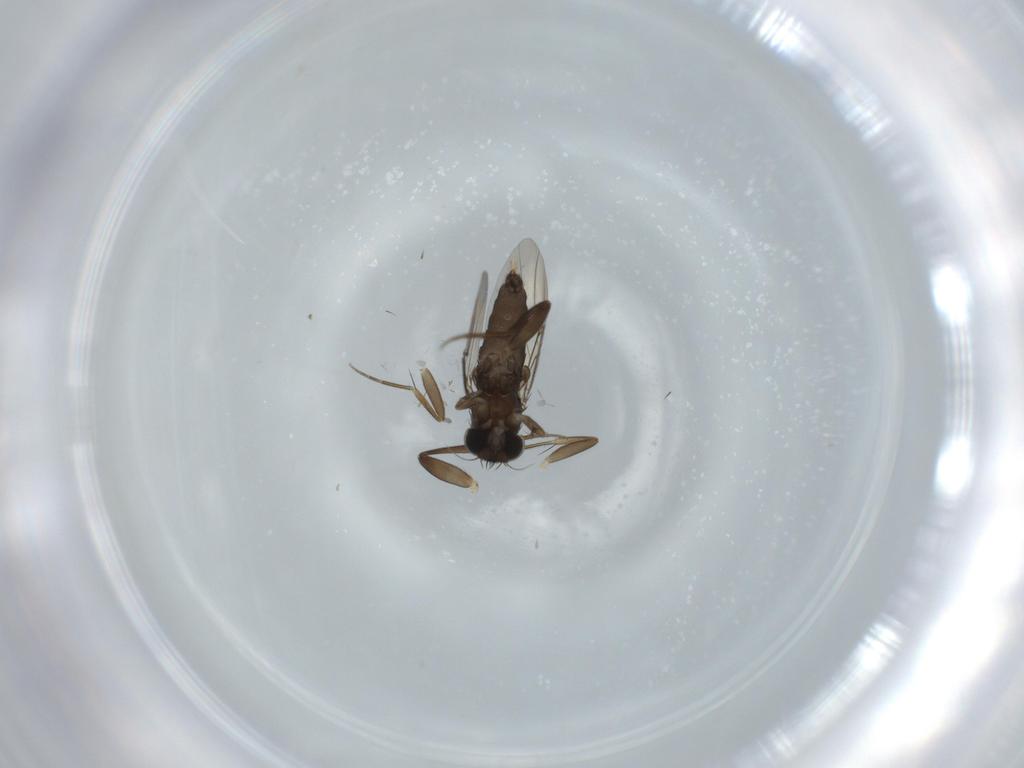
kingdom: Animalia
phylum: Arthropoda
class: Insecta
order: Diptera
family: Phoridae
